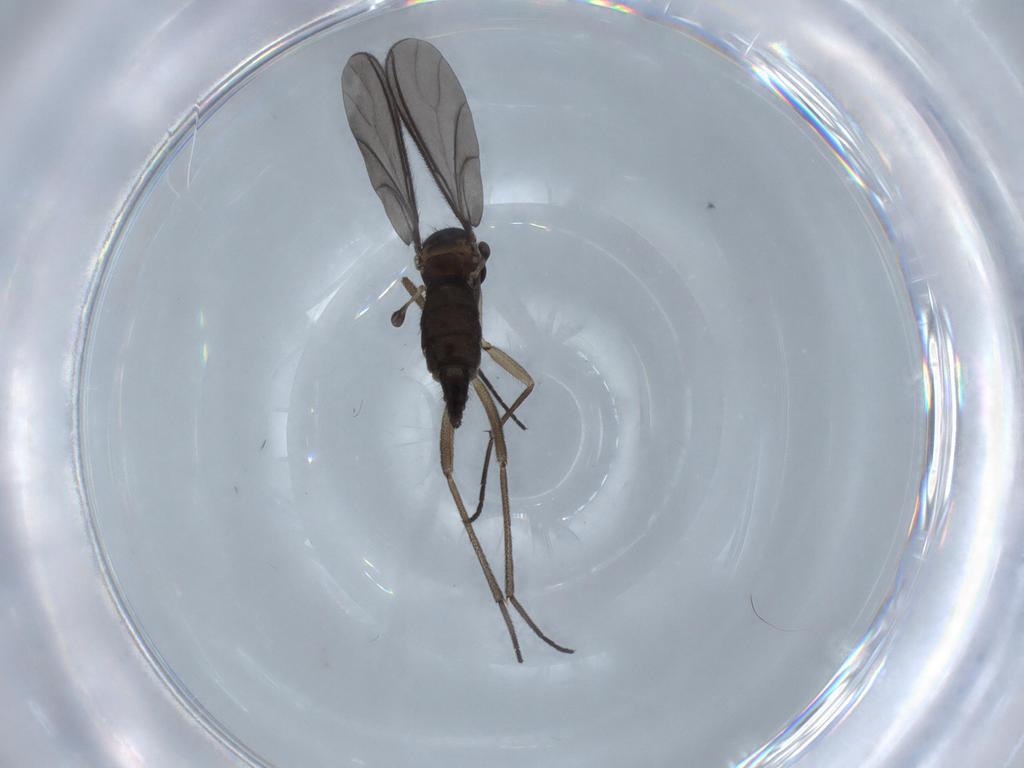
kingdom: Animalia
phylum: Arthropoda
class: Insecta
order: Diptera
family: Sciaridae
